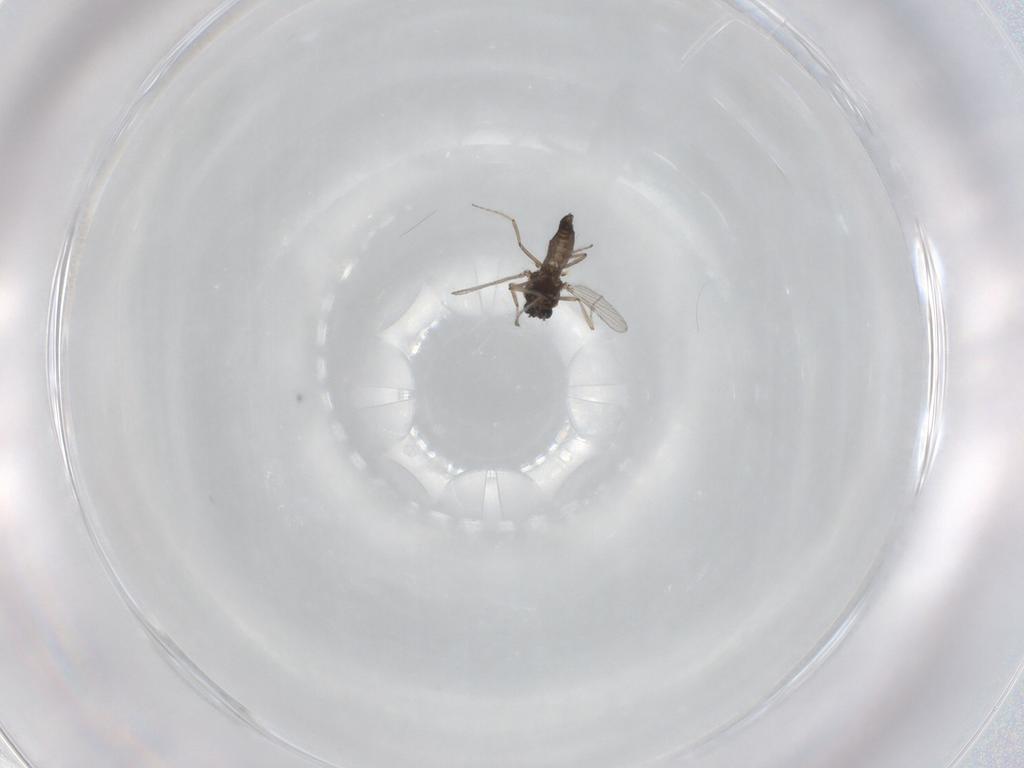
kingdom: Animalia
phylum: Arthropoda
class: Insecta
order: Diptera
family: Ceratopogonidae
